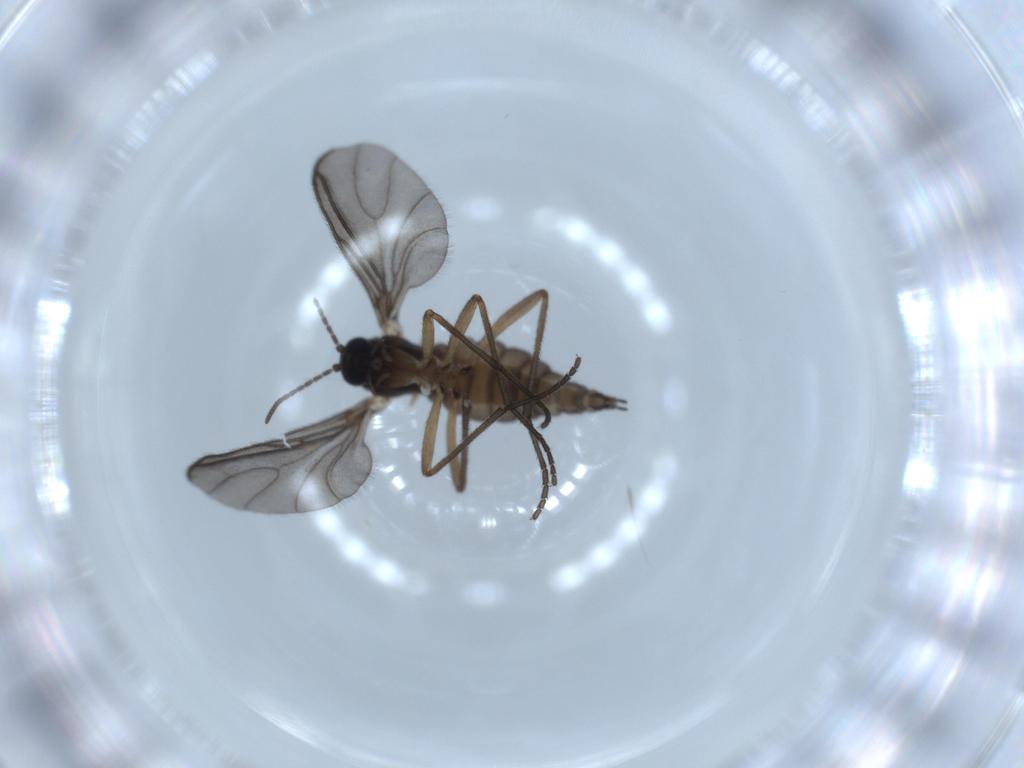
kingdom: Animalia
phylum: Arthropoda
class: Insecta
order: Diptera
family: Sciaridae
